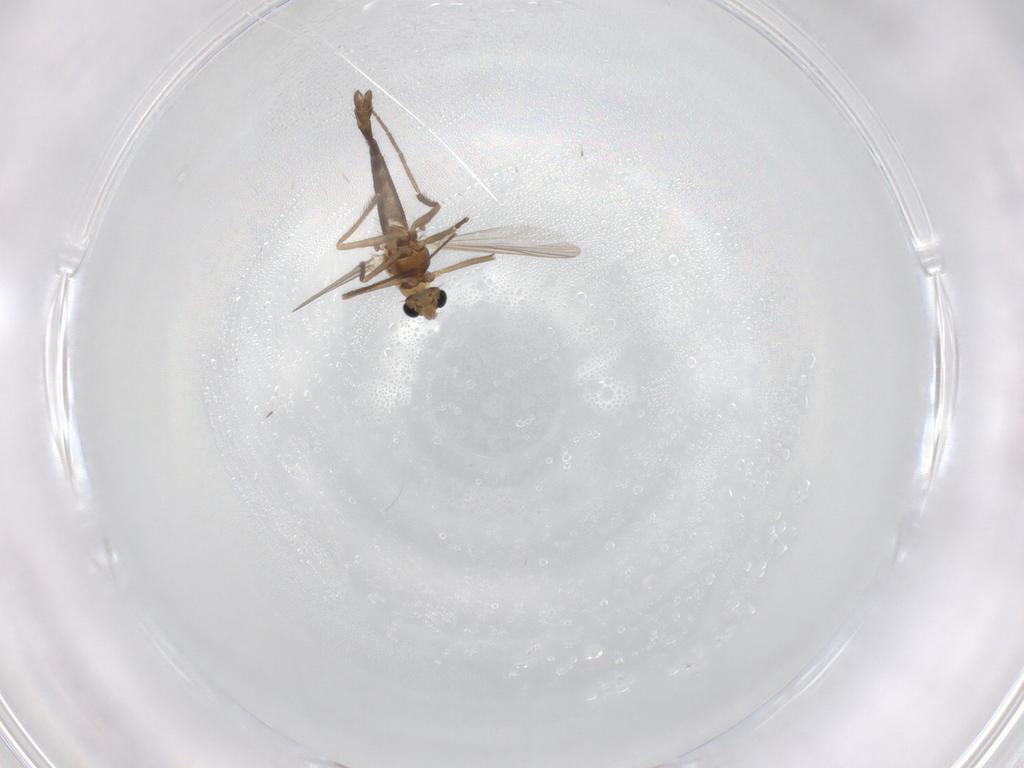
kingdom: Animalia
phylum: Arthropoda
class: Insecta
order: Diptera
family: Chironomidae
